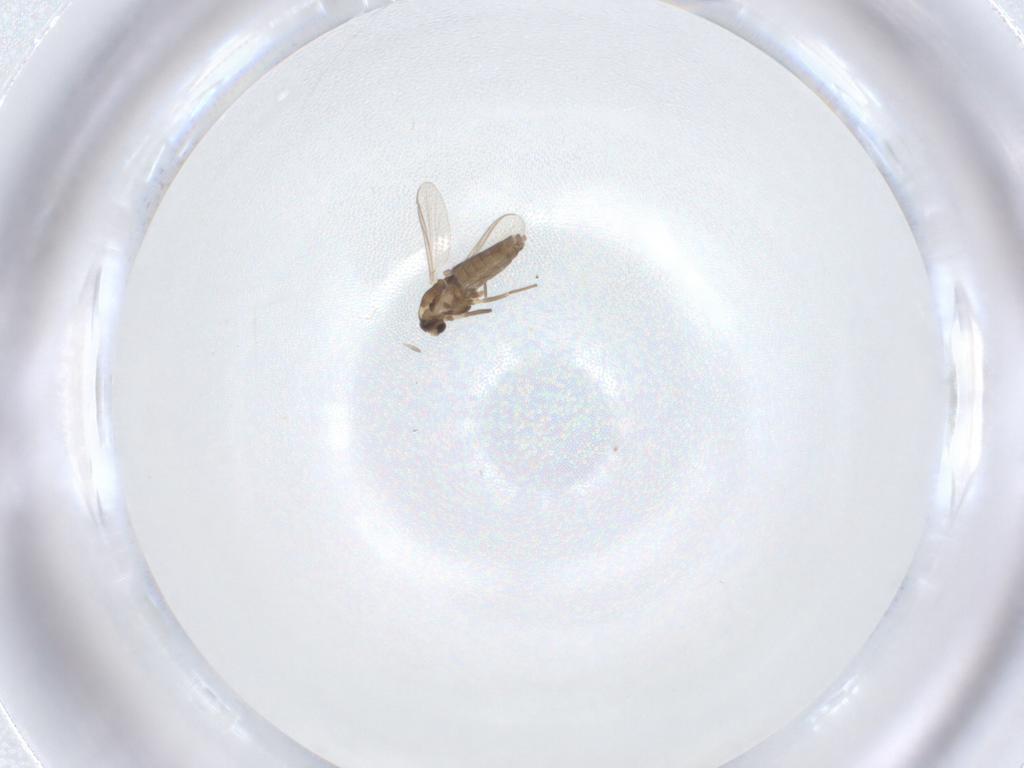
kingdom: Animalia
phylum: Arthropoda
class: Insecta
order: Diptera
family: Chironomidae
